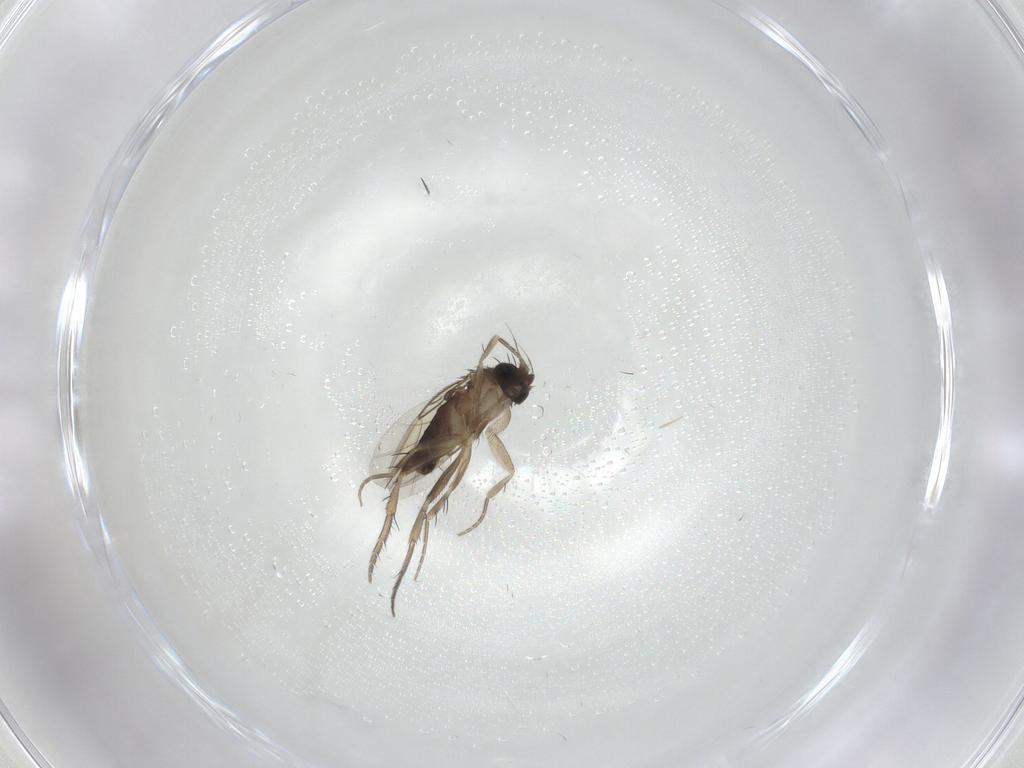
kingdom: Animalia
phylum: Arthropoda
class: Insecta
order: Diptera
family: Phoridae
